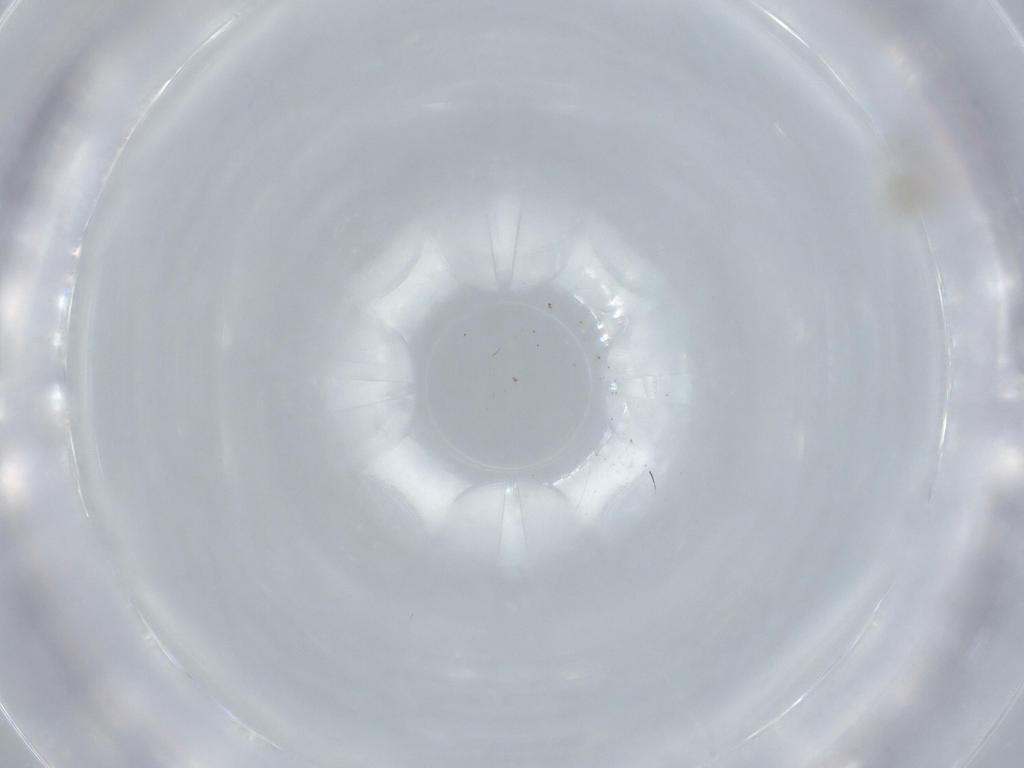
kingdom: Animalia
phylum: Arthropoda
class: Insecta
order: Hymenoptera
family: Mymaridae
